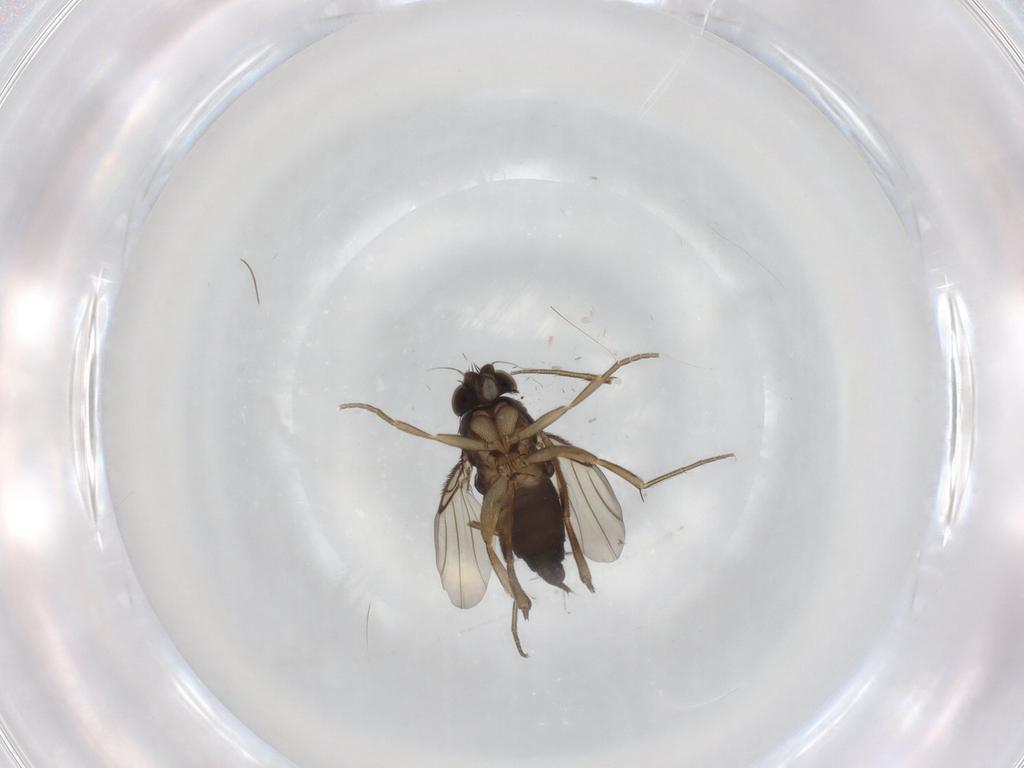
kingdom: Animalia
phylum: Arthropoda
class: Insecta
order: Diptera
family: Phoridae
